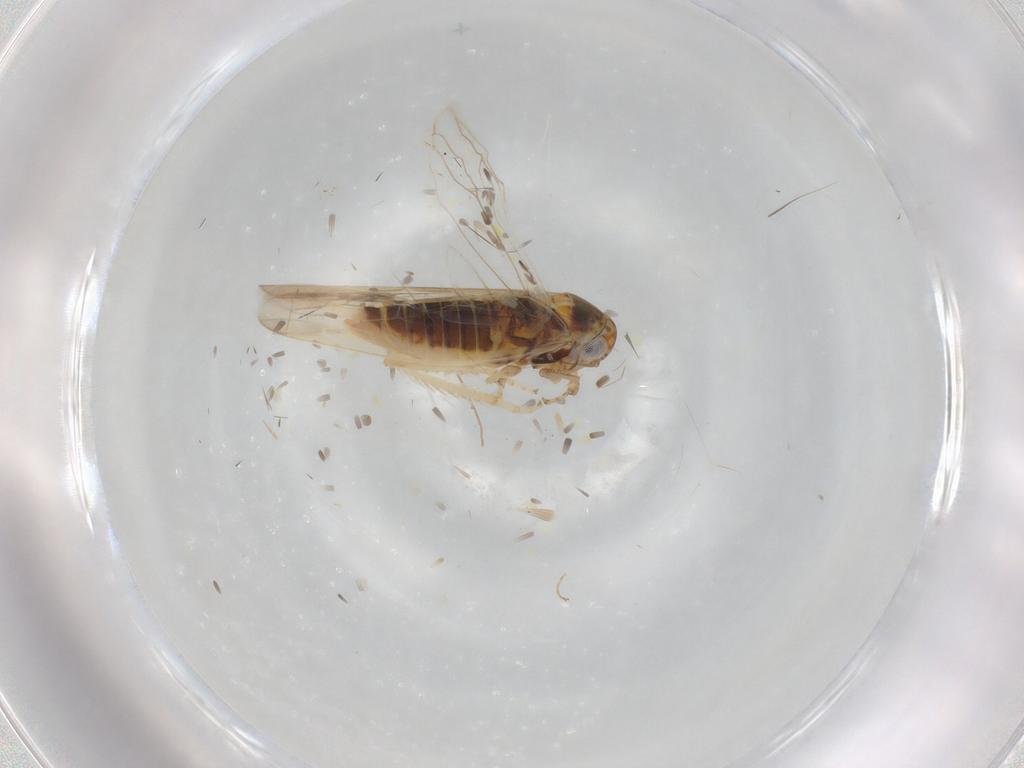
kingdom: Animalia
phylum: Arthropoda
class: Insecta
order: Hemiptera
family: Cicadellidae
